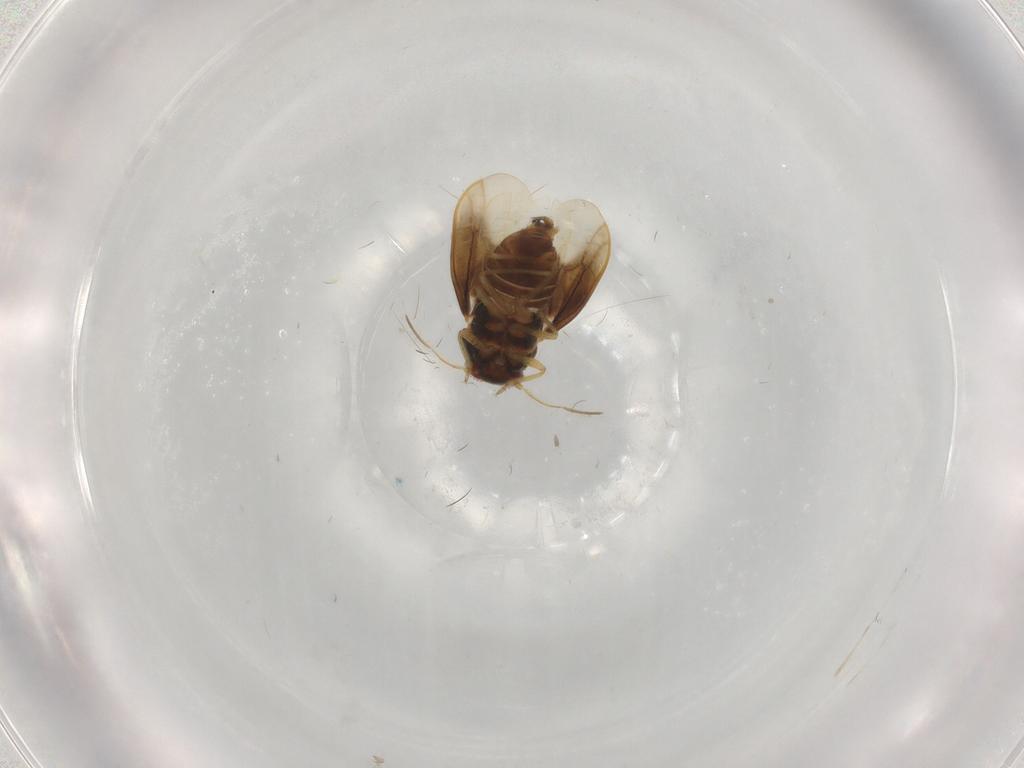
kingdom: Animalia
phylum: Arthropoda
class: Insecta
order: Hemiptera
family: Schizopteridae
